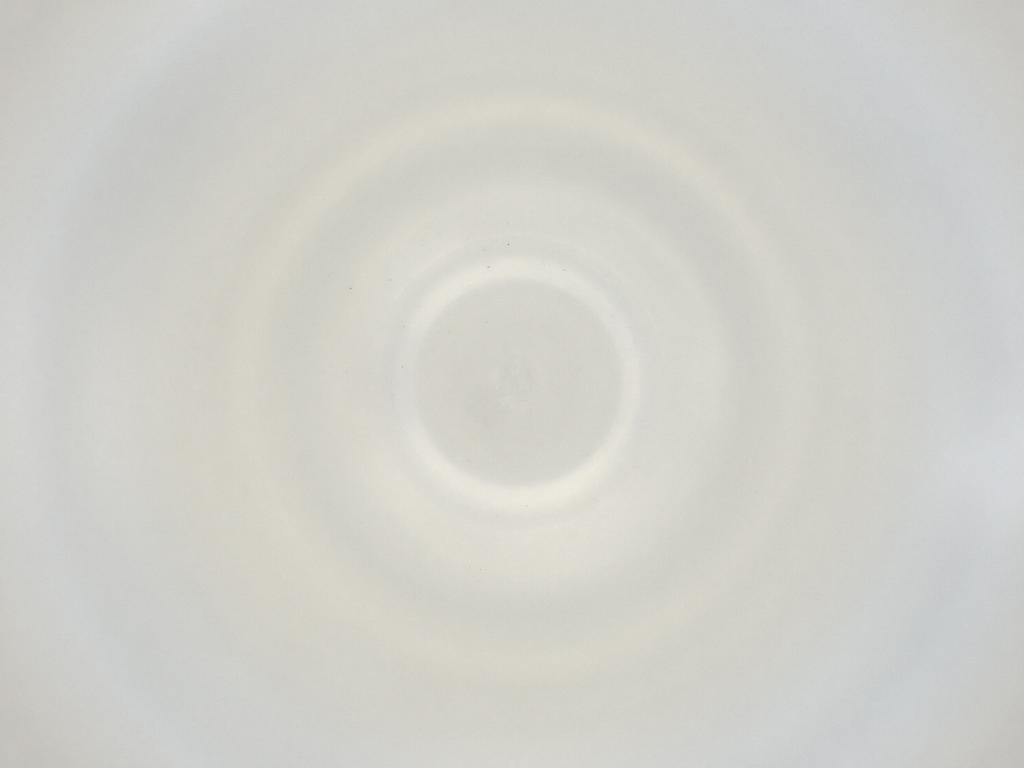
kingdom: Animalia
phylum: Arthropoda
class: Insecta
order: Diptera
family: Cecidomyiidae
